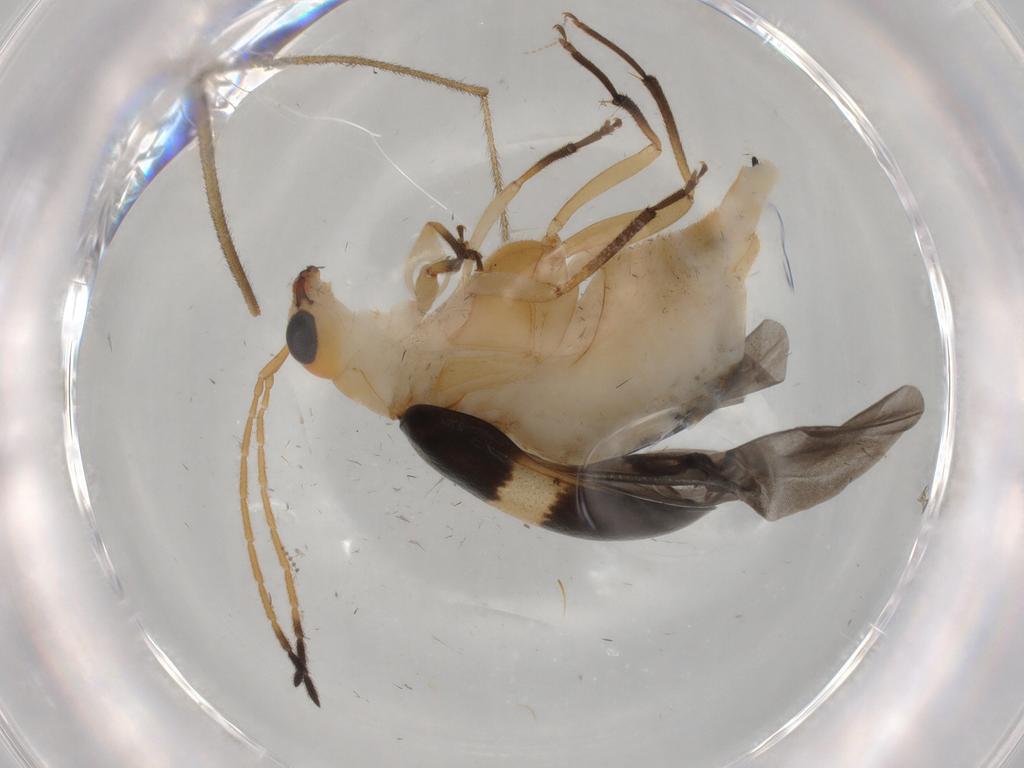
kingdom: Animalia
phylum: Arthropoda
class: Insecta
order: Coleoptera
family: Chrysomelidae
